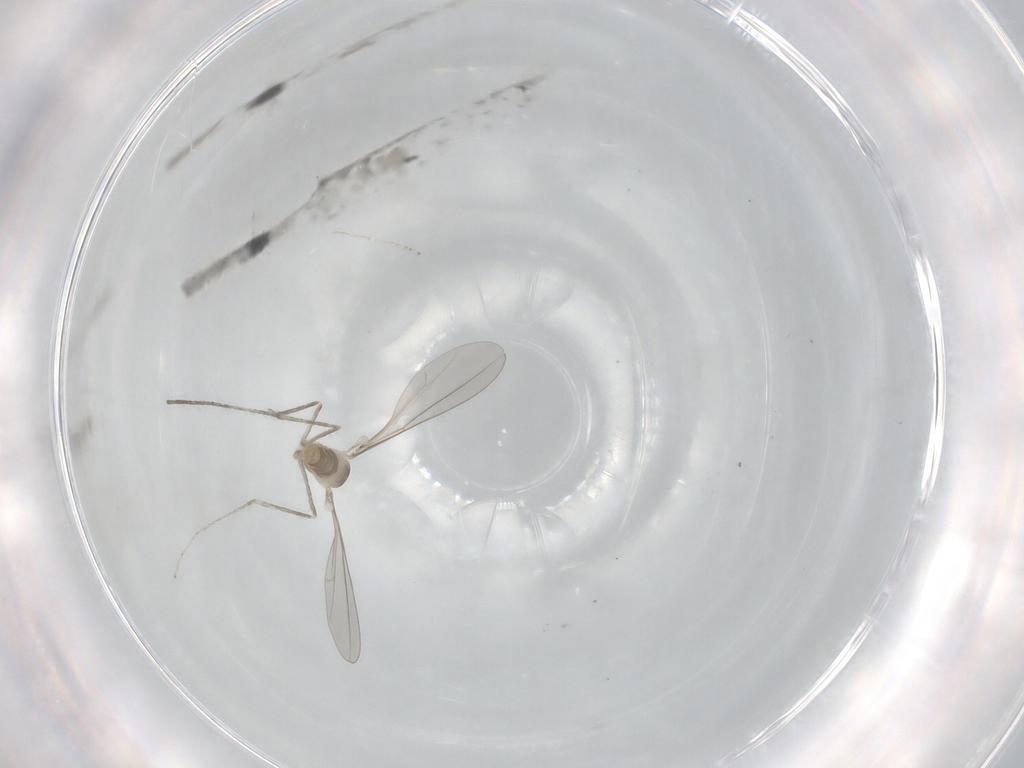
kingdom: Animalia
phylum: Arthropoda
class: Insecta
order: Diptera
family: Cecidomyiidae
